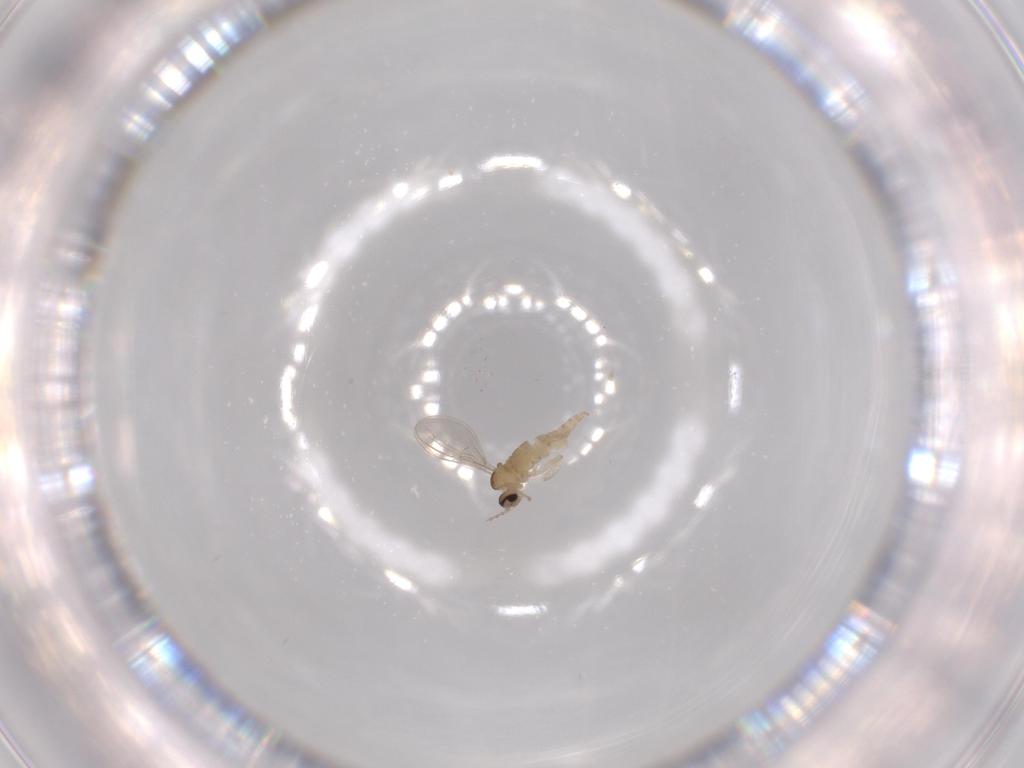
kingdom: Animalia
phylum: Arthropoda
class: Insecta
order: Diptera
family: Cecidomyiidae
